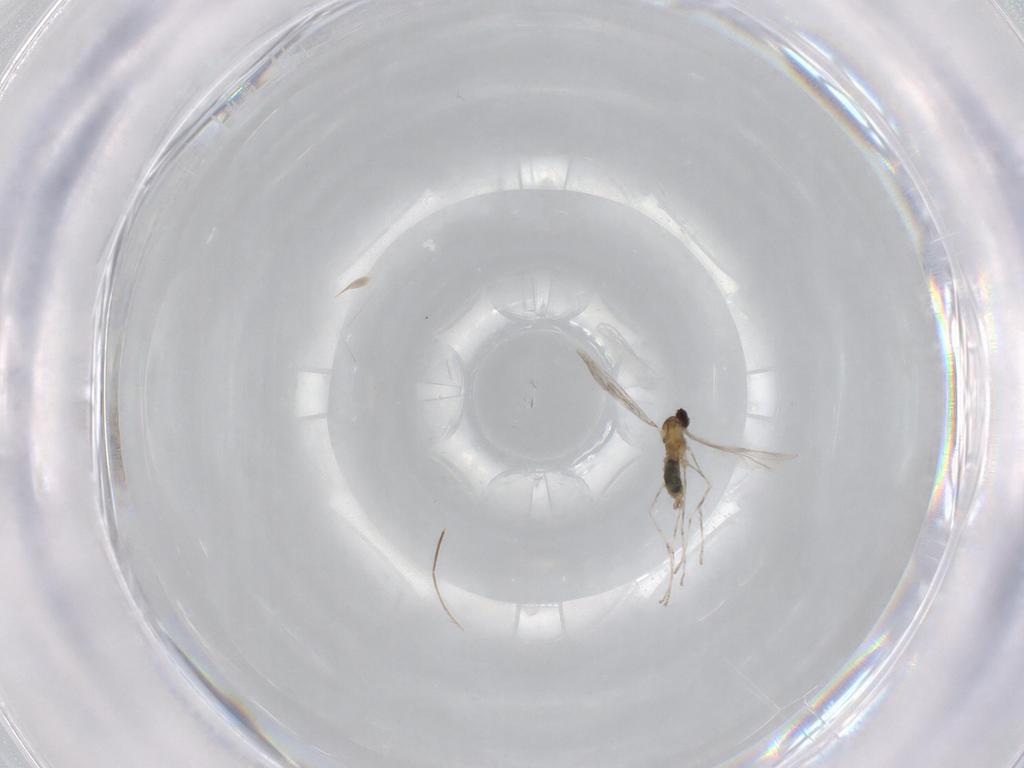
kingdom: Animalia
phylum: Arthropoda
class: Insecta
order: Diptera
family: Cecidomyiidae
